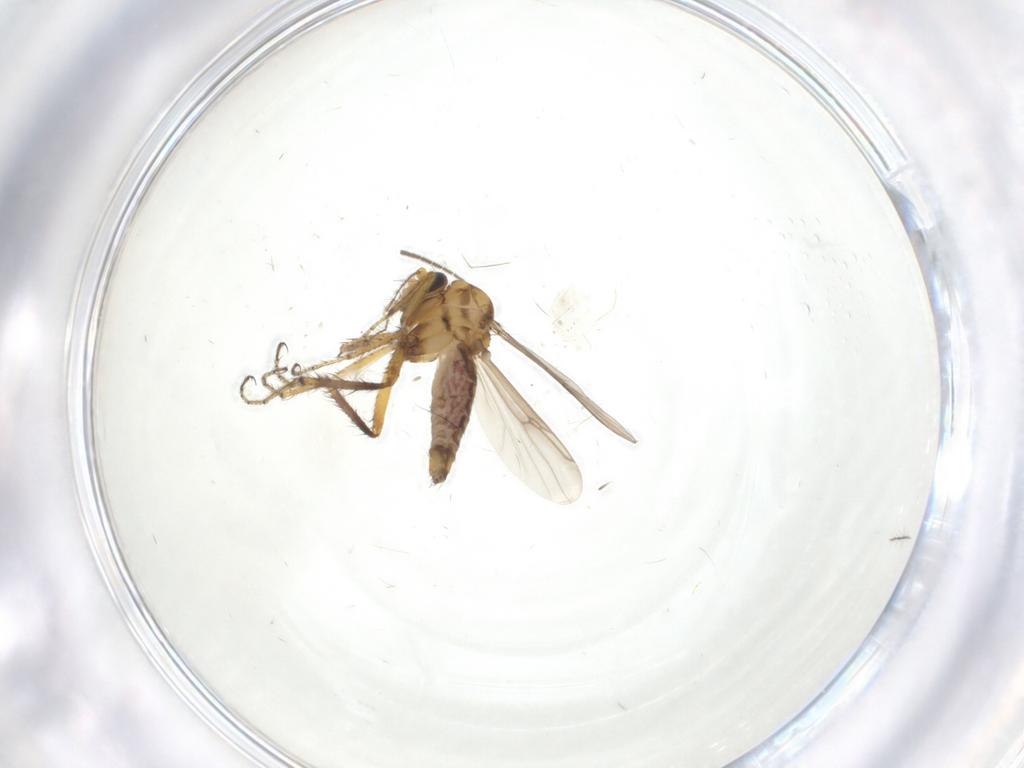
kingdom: Animalia
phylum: Arthropoda
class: Insecta
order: Diptera
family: Ceratopogonidae
